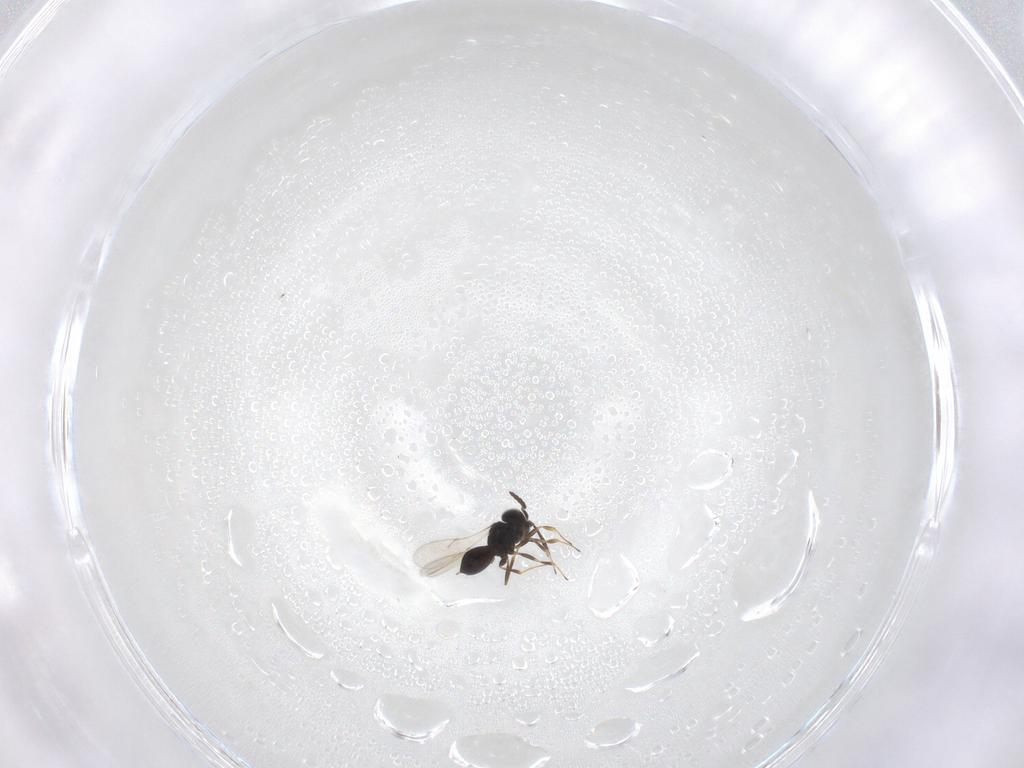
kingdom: Animalia
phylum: Arthropoda
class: Insecta
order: Hymenoptera
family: Scelionidae
